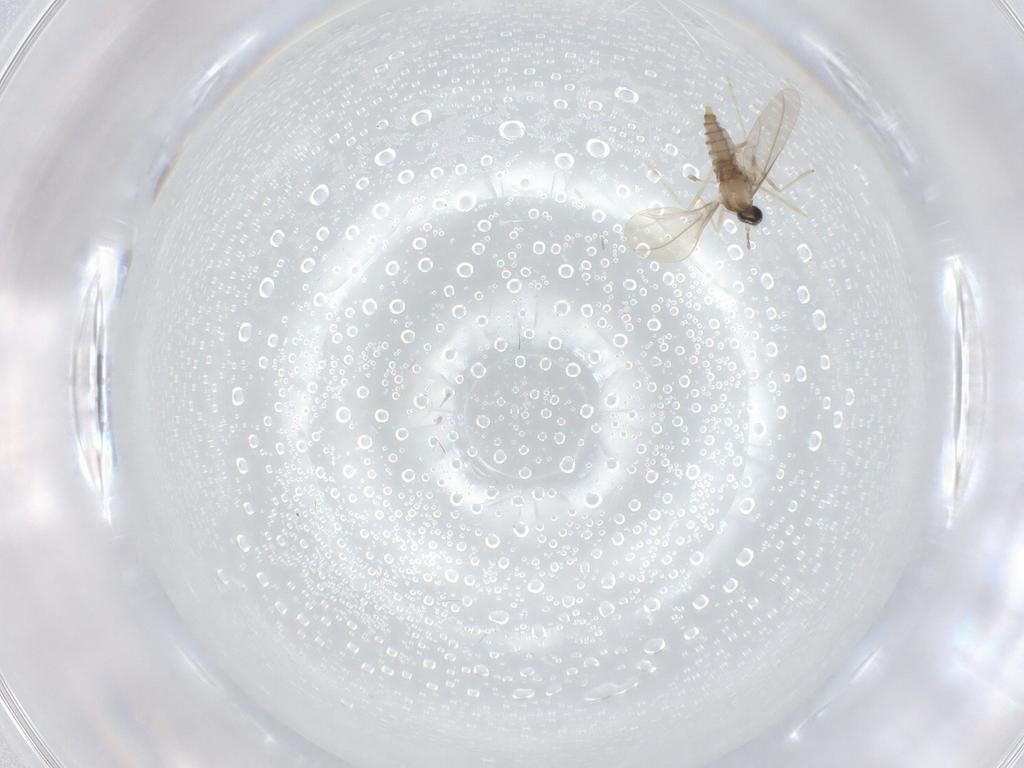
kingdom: Animalia
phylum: Arthropoda
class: Insecta
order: Diptera
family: Cecidomyiidae
